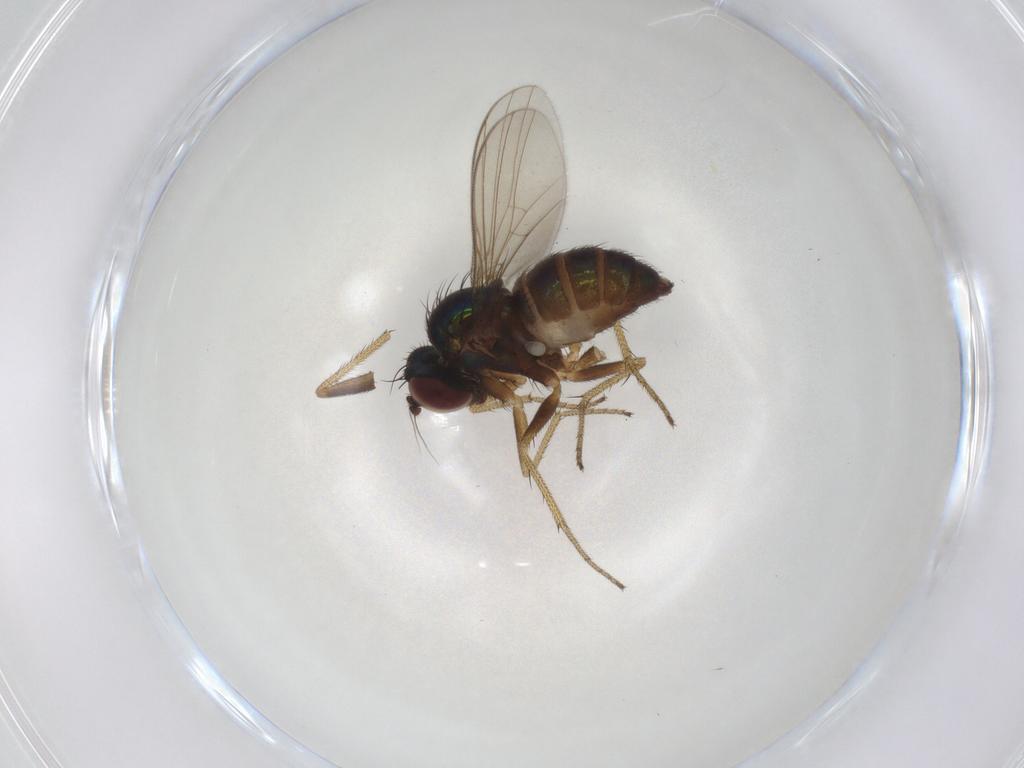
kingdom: Animalia
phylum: Arthropoda
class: Insecta
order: Diptera
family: Dolichopodidae
